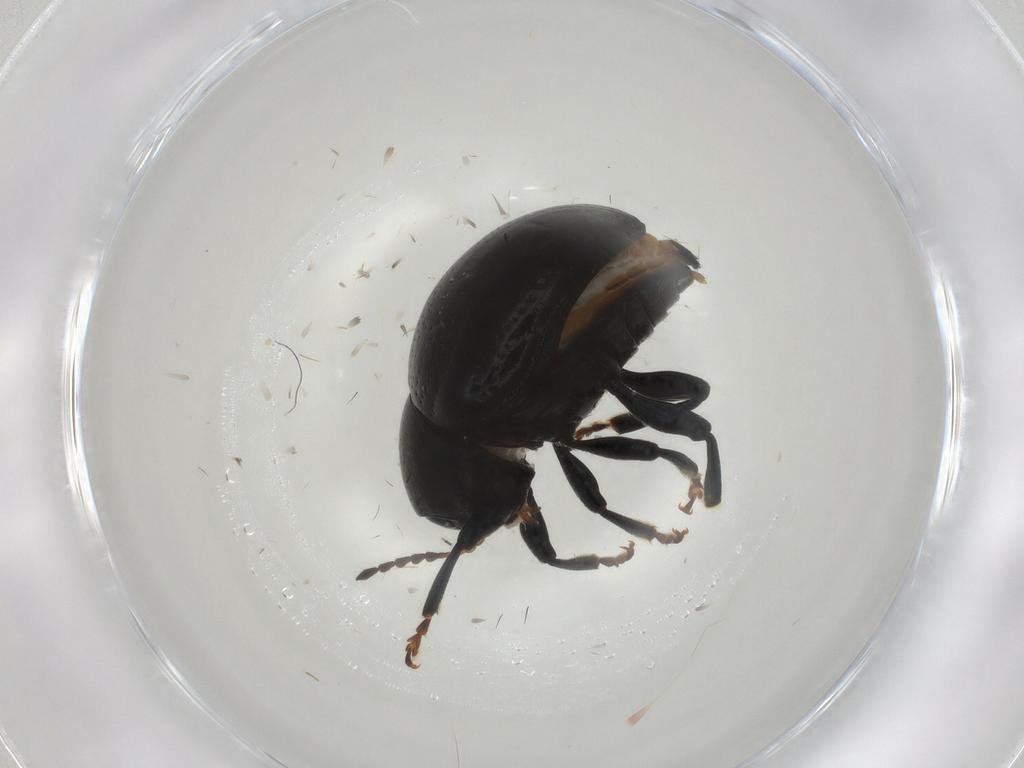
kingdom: Animalia
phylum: Arthropoda
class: Insecta
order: Coleoptera
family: Chrysomelidae
